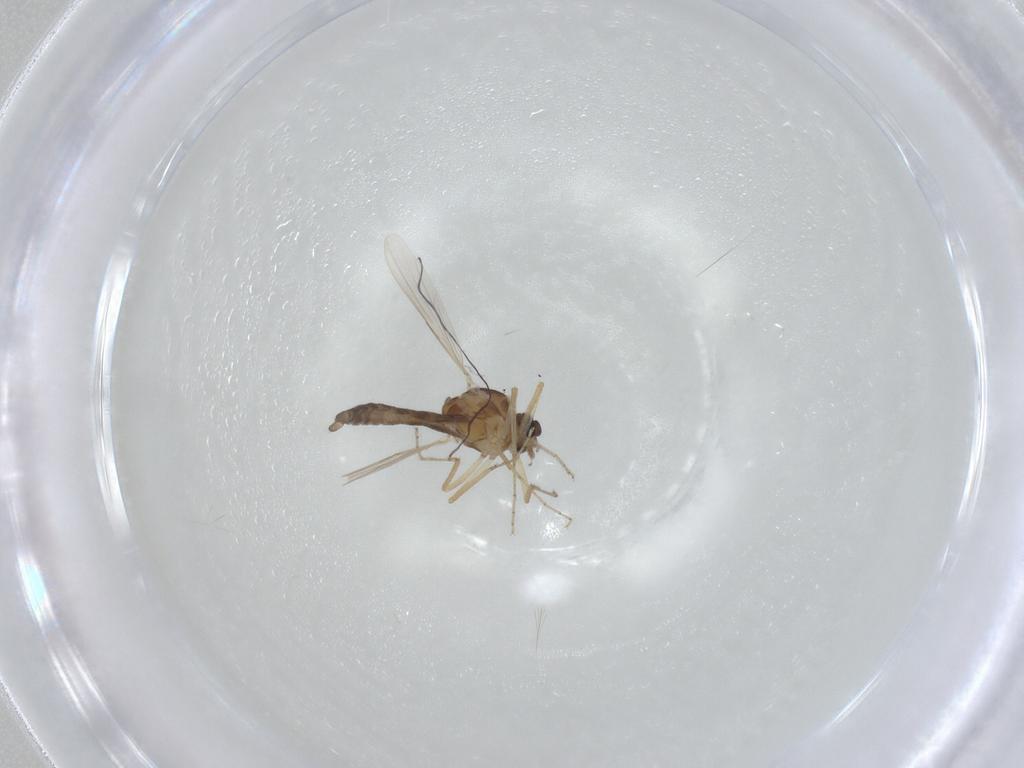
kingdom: Animalia
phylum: Arthropoda
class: Insecta
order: Diptera
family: Ceratopogonidae
